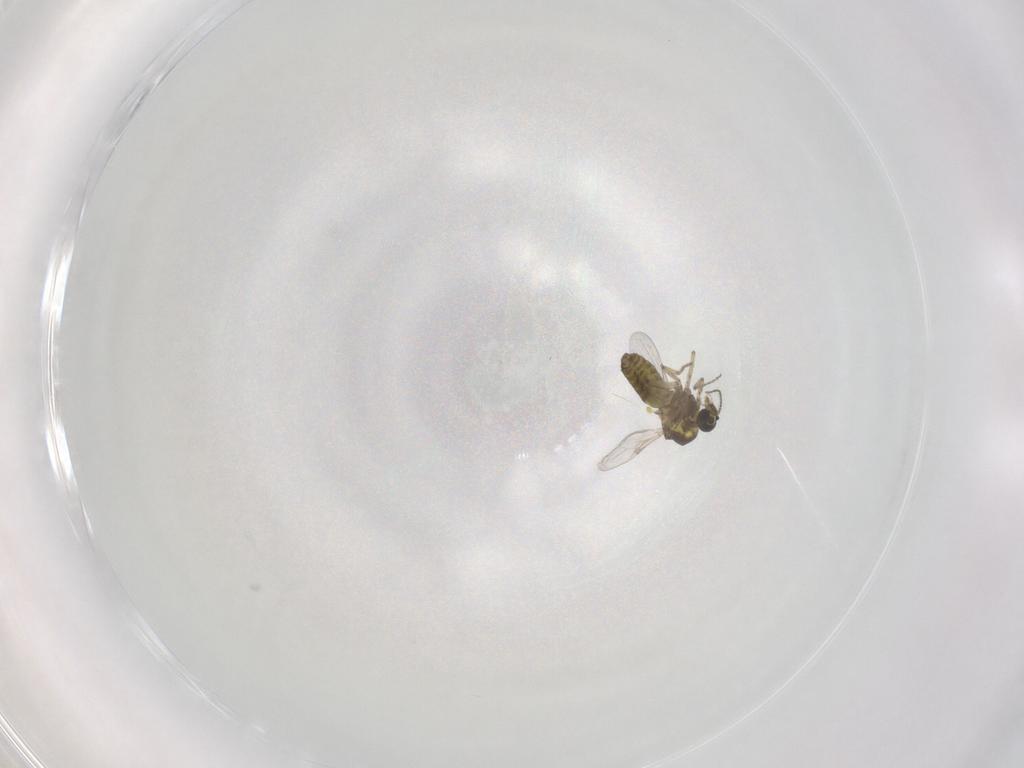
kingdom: Animalia
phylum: Arthropoda
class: Insecta
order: Diptera
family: Ceratopogonidae
